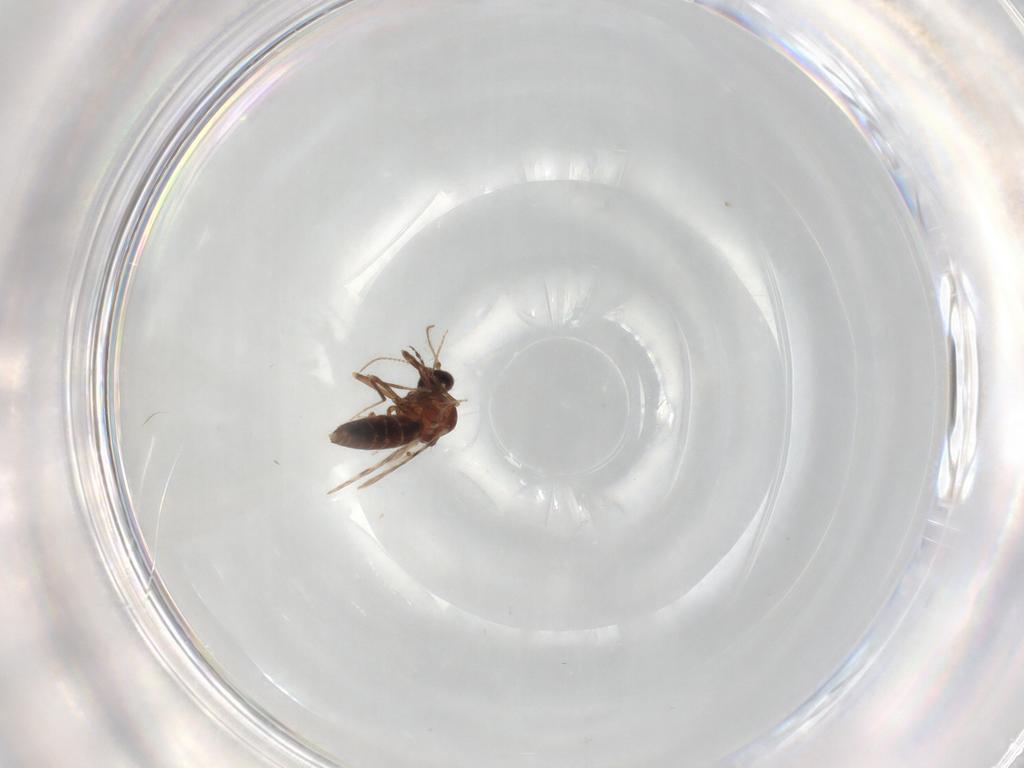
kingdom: Animalia
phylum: Arthropoda
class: Insecta
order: Diptera
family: Ceratopogonidae
